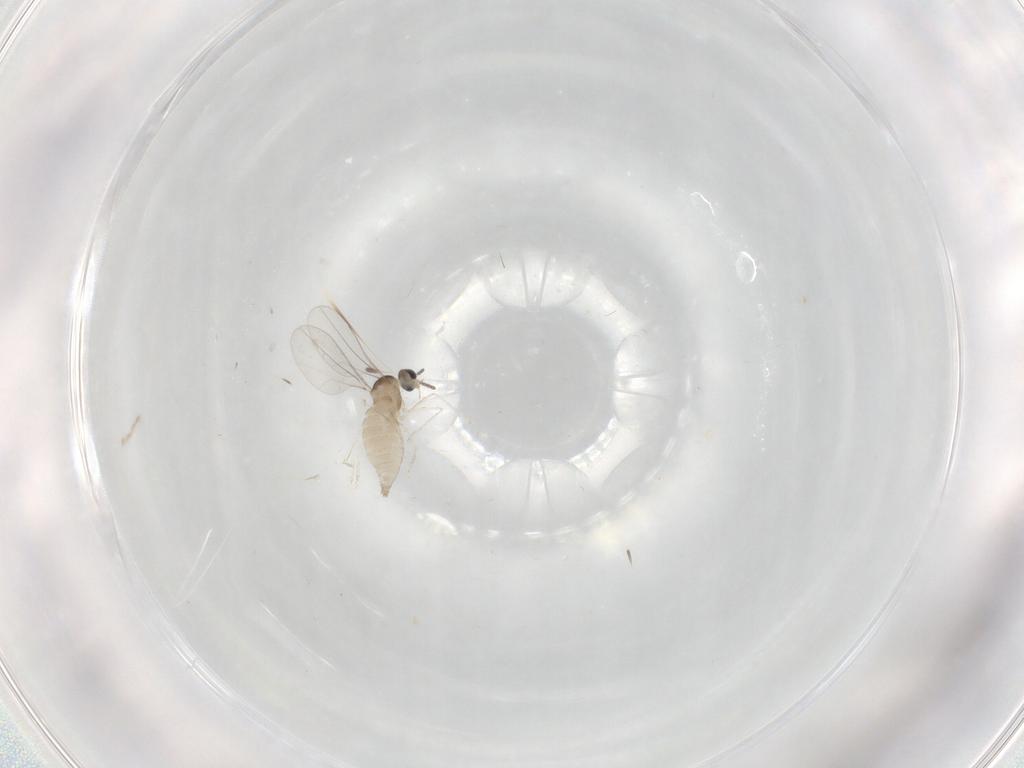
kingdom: Animalia
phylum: Arthropoda
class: Insecta
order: Diptera
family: Cecidomyiidae
